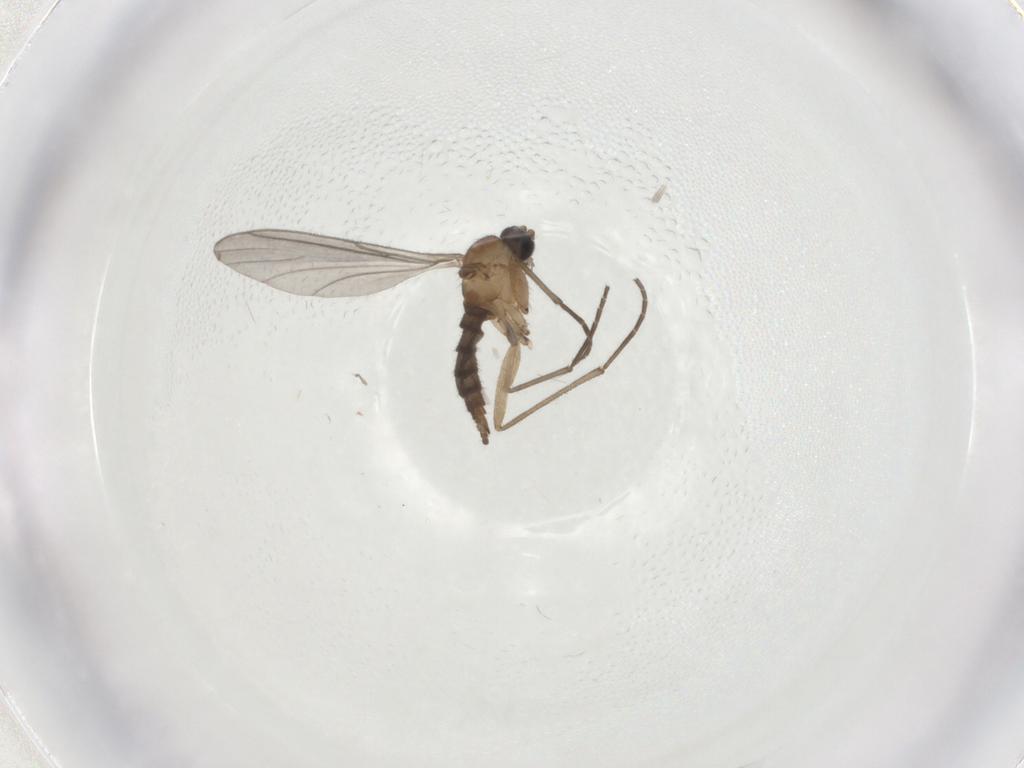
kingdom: Animalia
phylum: Arthropoda
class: Insecta
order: Diptera
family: Sciaridae
